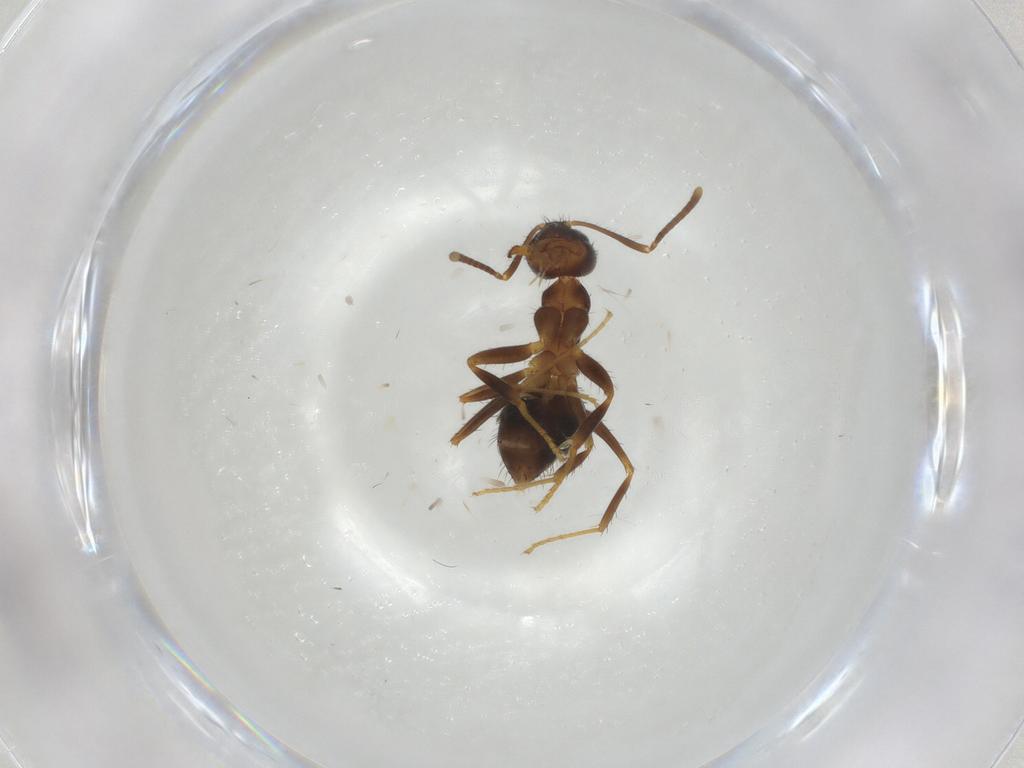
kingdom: Animalia
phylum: Arthropoda
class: Insecta
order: Hymenoptera
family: Formicidae
